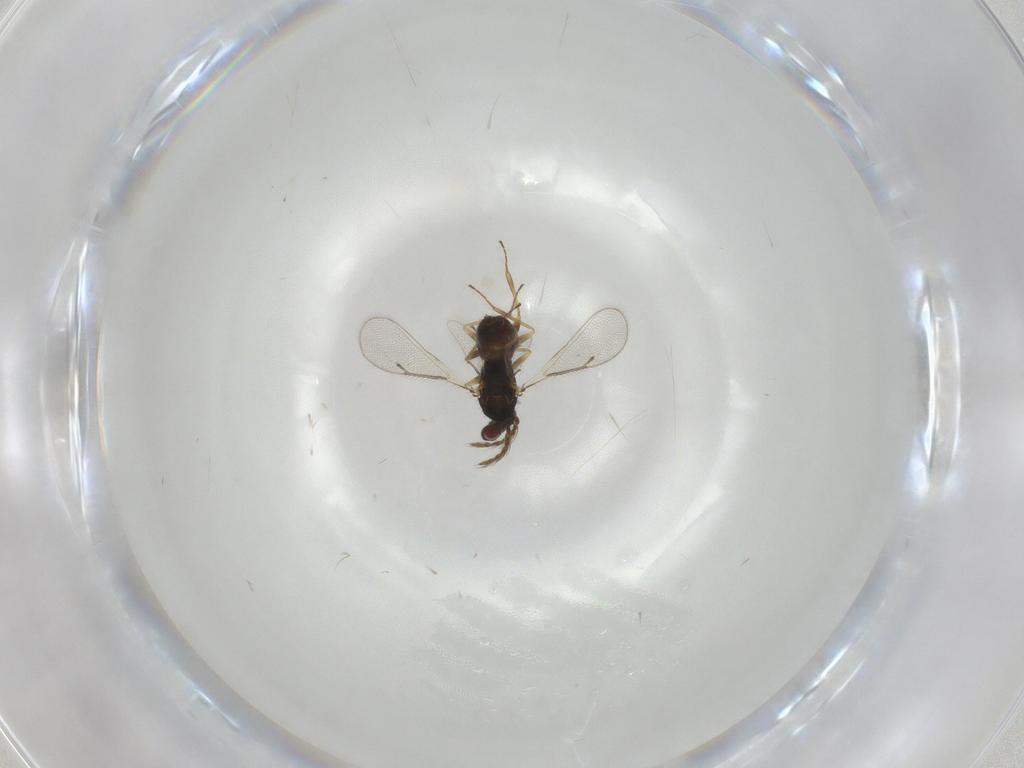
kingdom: Animalia
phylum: Arthropoda
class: Insecta
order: Hymenoptera
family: Eulophidae
